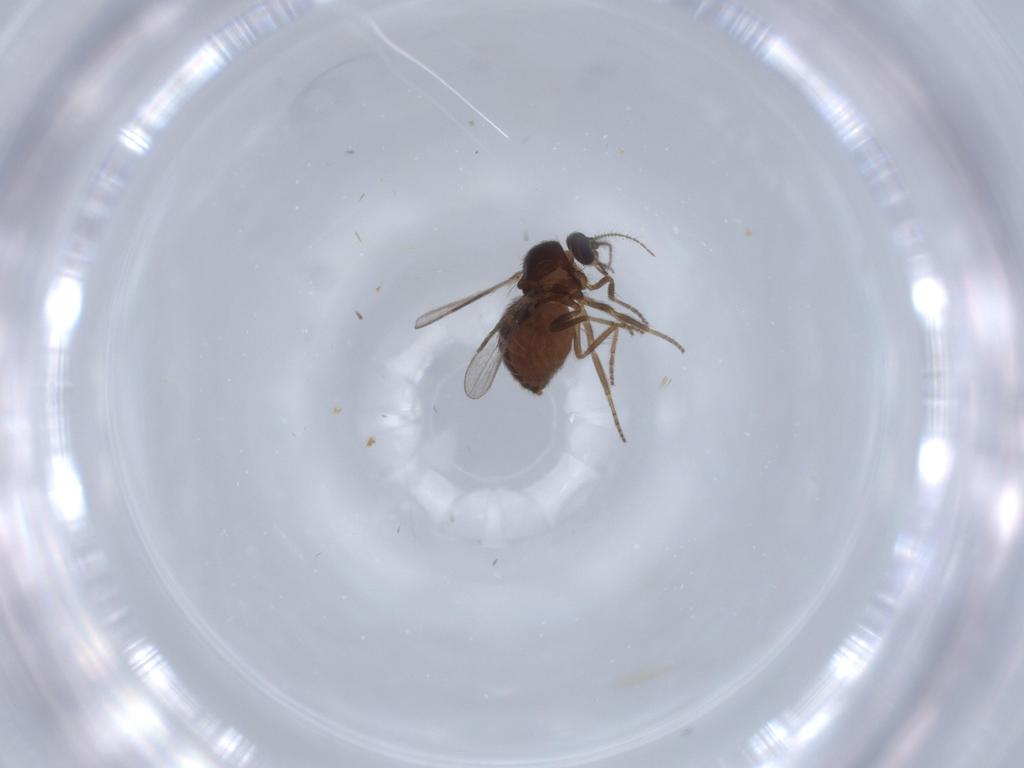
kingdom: Animalia
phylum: Arthropoda
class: Insecta
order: Diptera
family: Ceratopogonidae
